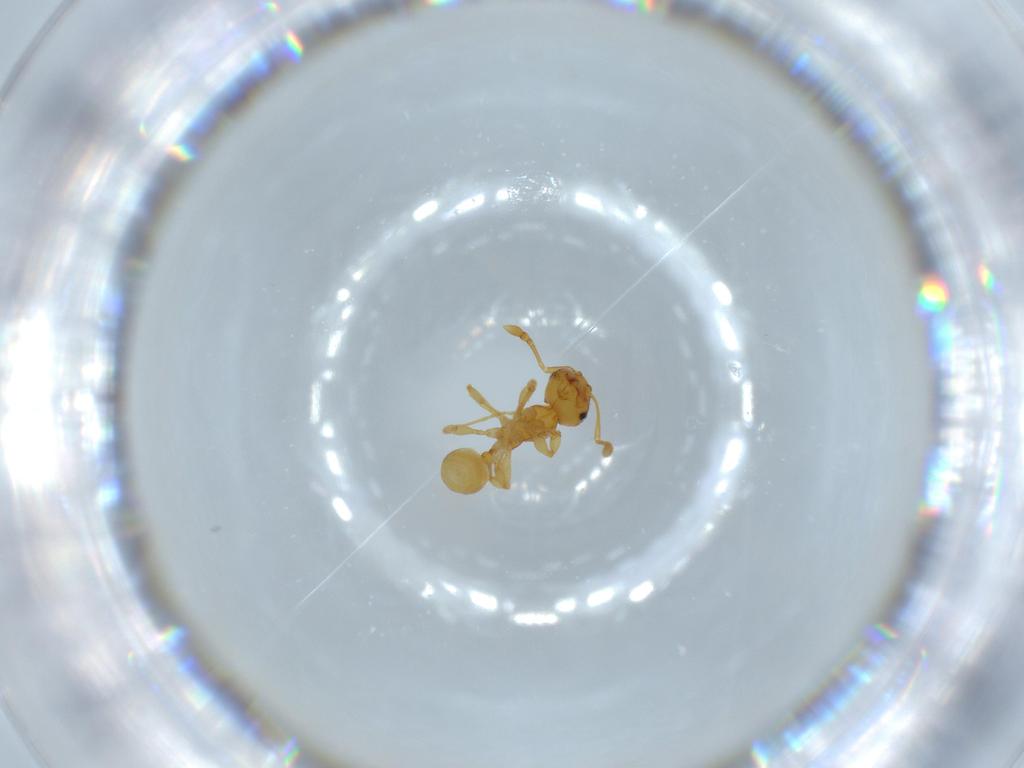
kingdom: Animalia
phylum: Arthropoda
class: Insecta
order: Hymenoptera
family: Formicidae
